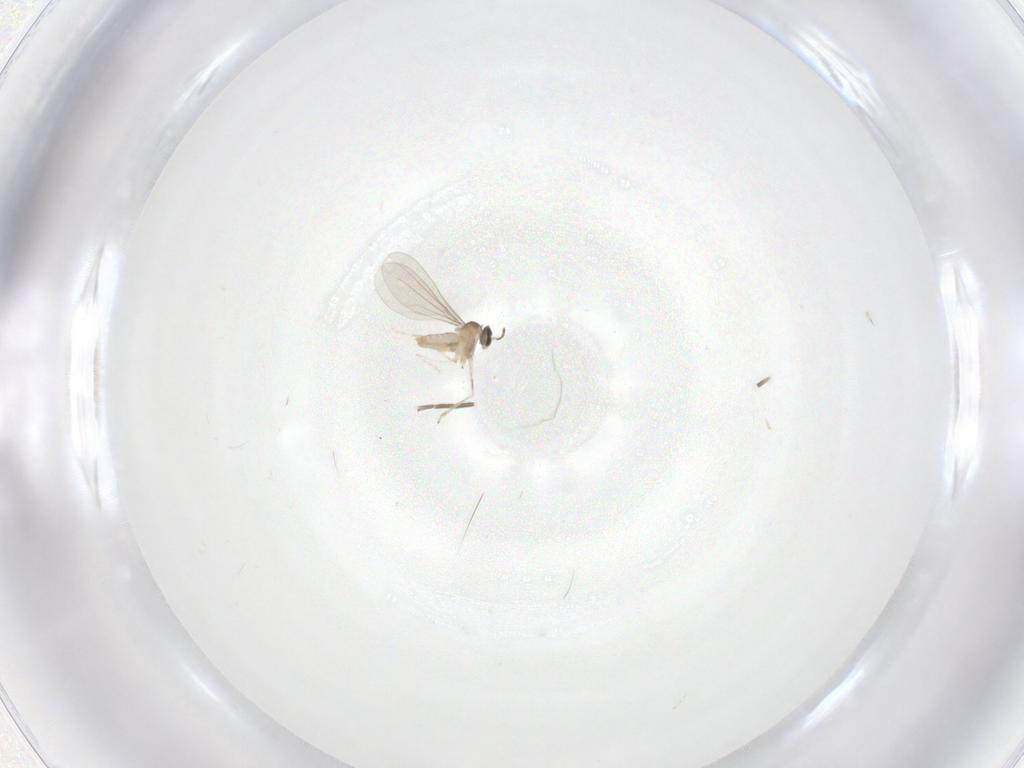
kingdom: Animalia
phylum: Arthropoda
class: Insecta
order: Diptera
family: Cecidomyiidae
